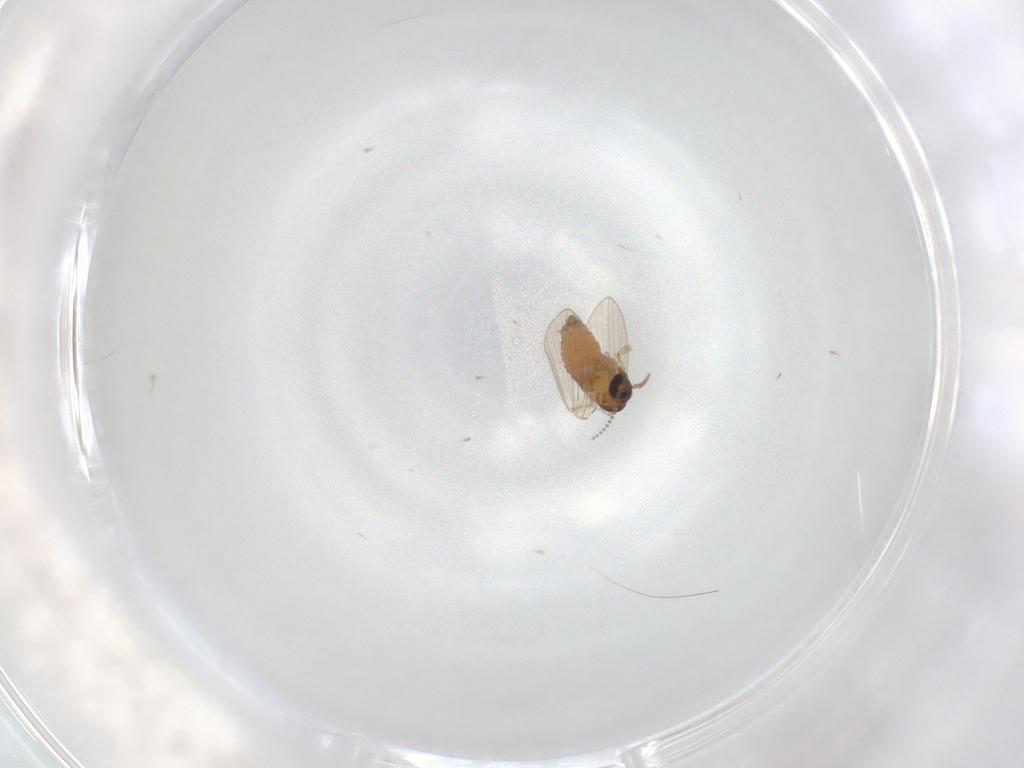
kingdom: Animalia
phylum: Arthropoda
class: Insecta
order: Diptera
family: Psychodidae
